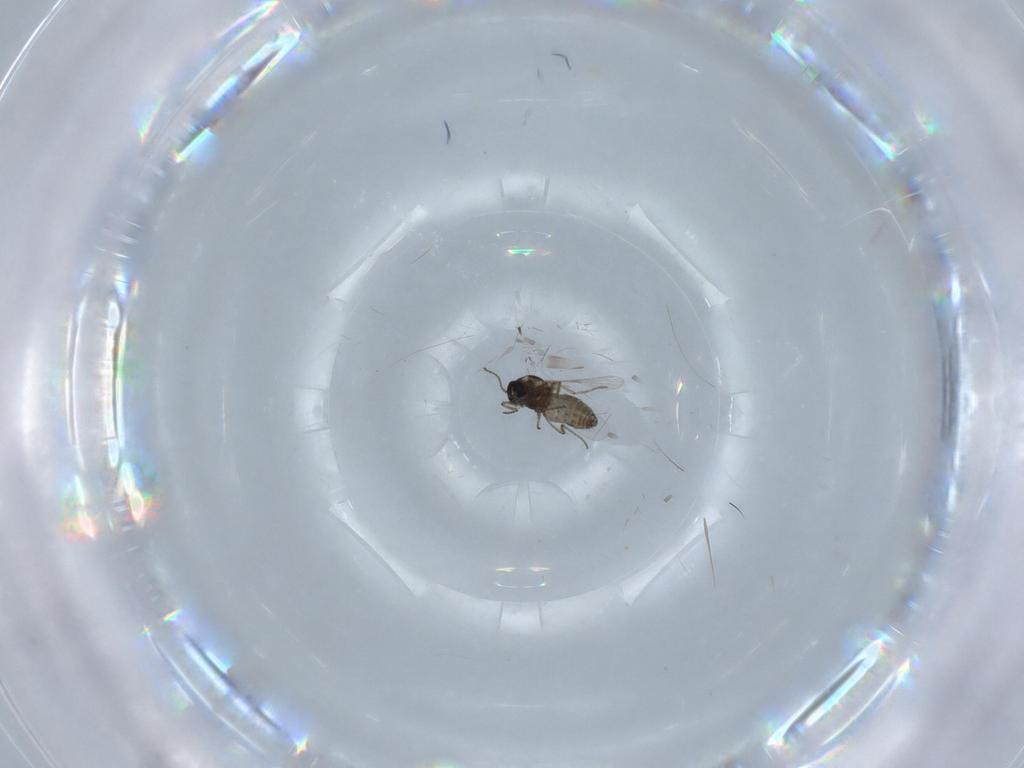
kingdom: Animalia
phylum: Arthropoda
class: Insecta
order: Diptera
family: Ceratopogonidae
